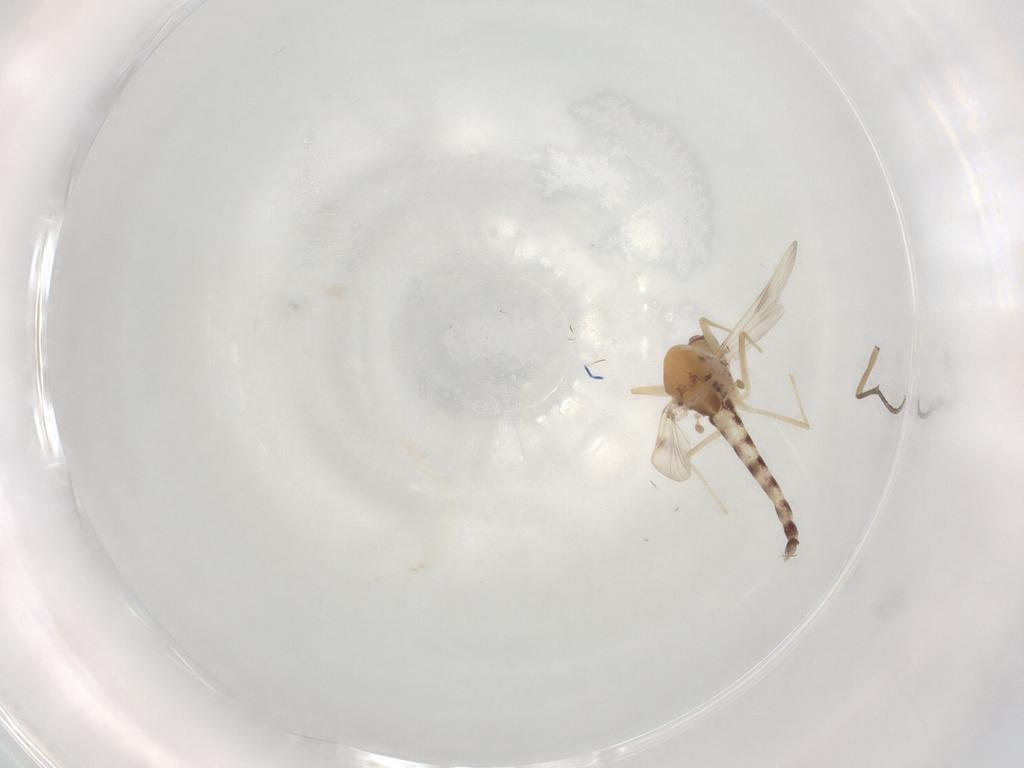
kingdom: Animalia
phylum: Arthropoda
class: Insecta
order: Diptera
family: Chironomidae
